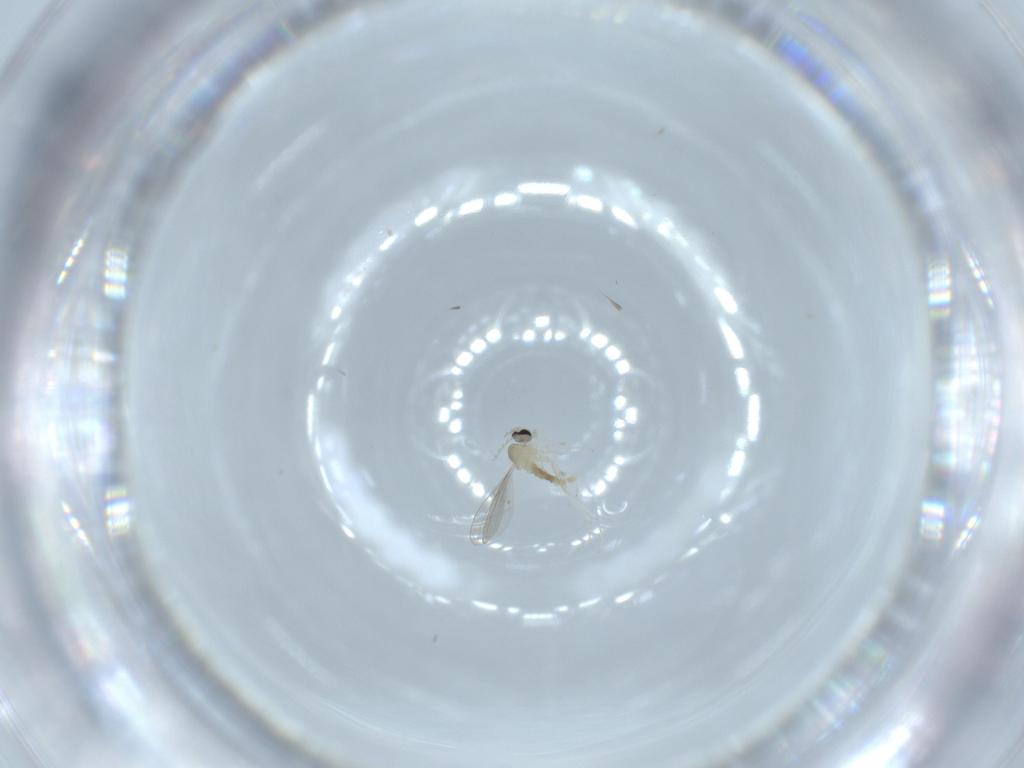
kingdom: Animalia
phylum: Arthropoda
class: Insecta
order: Diptera
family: Cecidomyiidae
